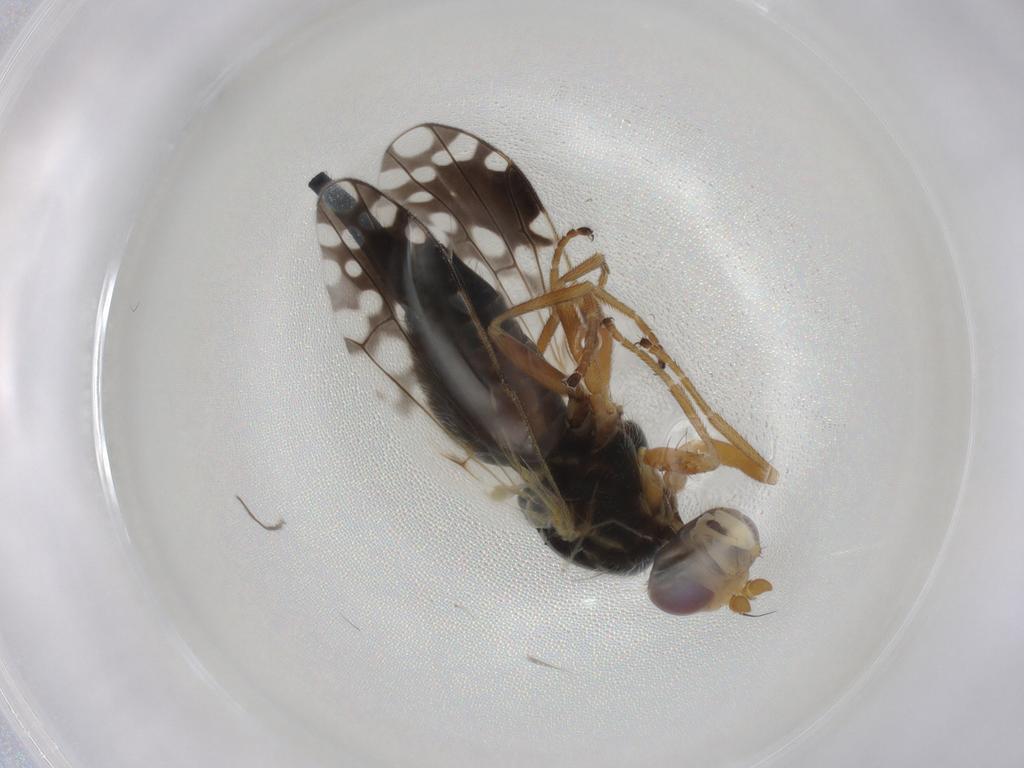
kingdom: Animalia
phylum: Arthropoda
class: Insecta
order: Diptera
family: Tephritidae
